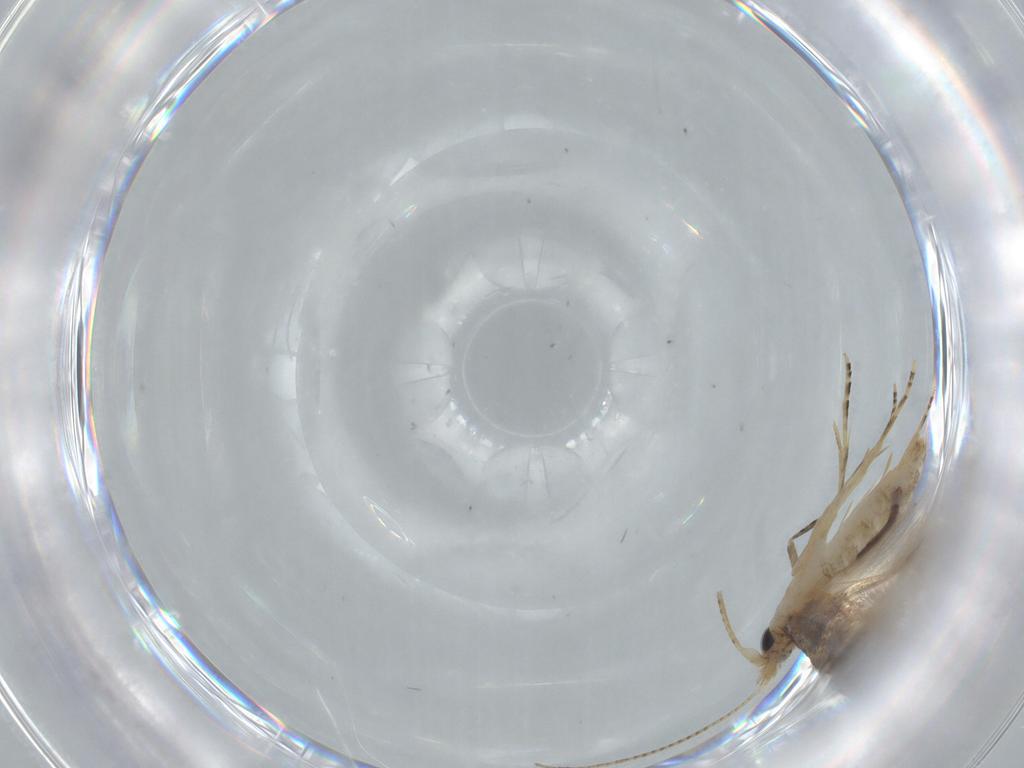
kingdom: Animalia
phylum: Arthropoda
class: Insecta
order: Lepidoptera
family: Bucculatricidae
